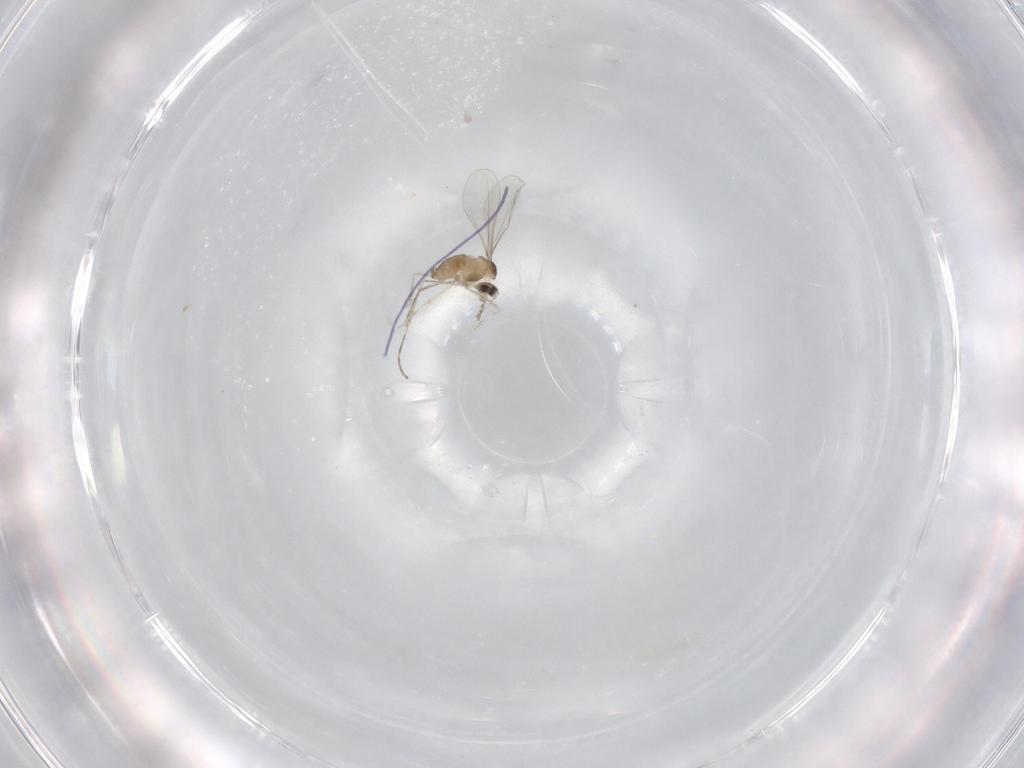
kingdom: Animalia
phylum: Arthropoda
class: Insecta
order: Diptera
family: Cecidomyiidae
